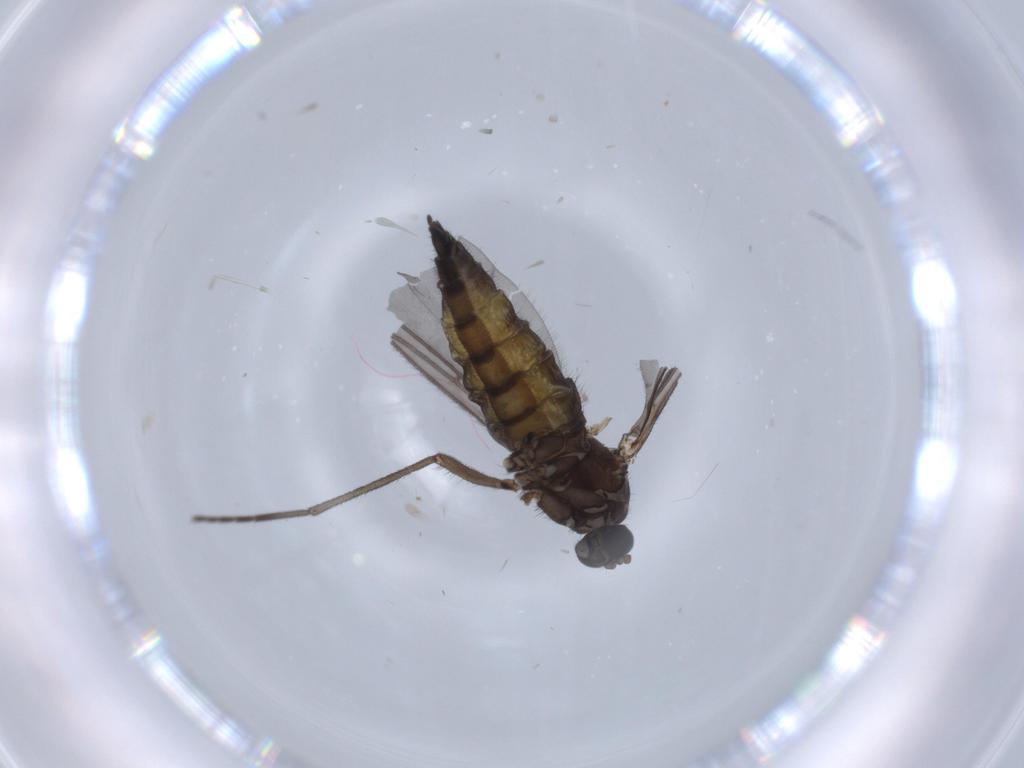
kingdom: Animalia
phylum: Arthropoda
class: Insecta
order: Diptera
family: Sciaridae
